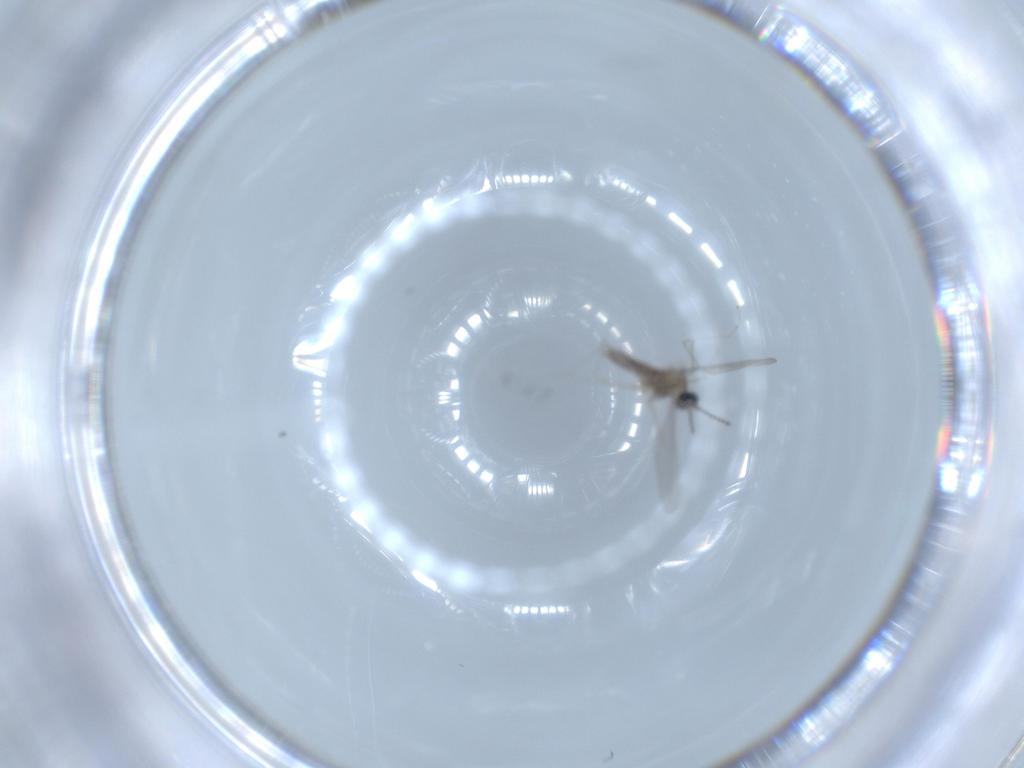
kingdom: Animalia
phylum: Arthropoda
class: Insecta
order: Diptera
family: Cecidomyiidae
